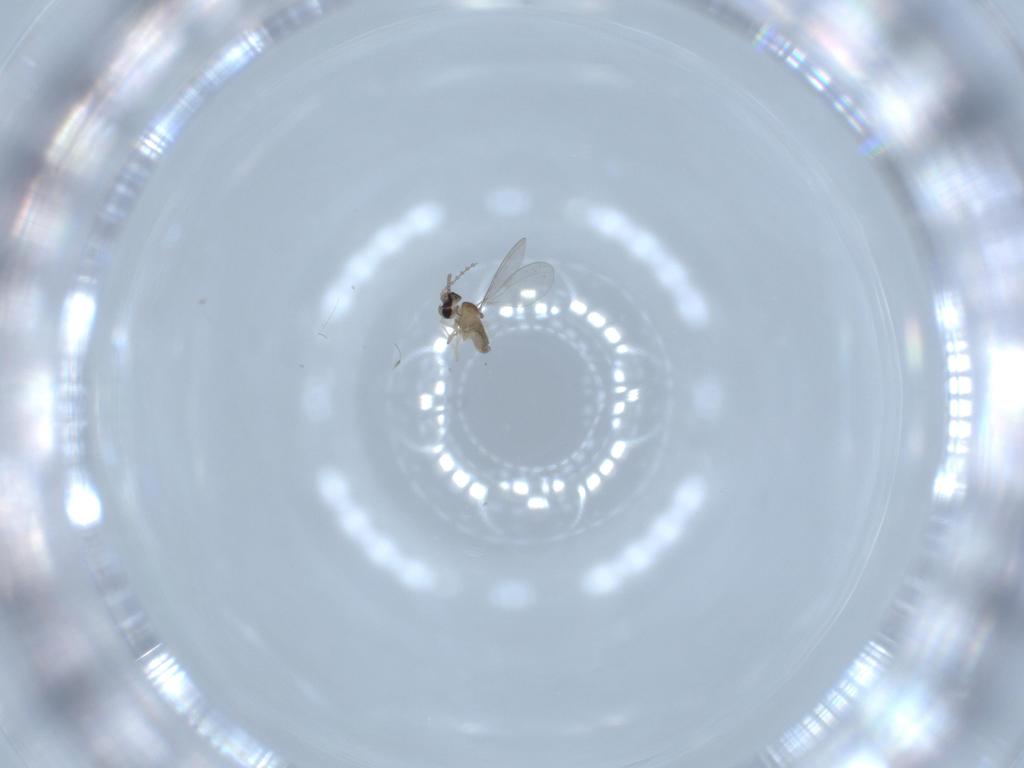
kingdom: Animalia
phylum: Arthropoda
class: Insecta
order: Diptera
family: Cecidomyiidae
